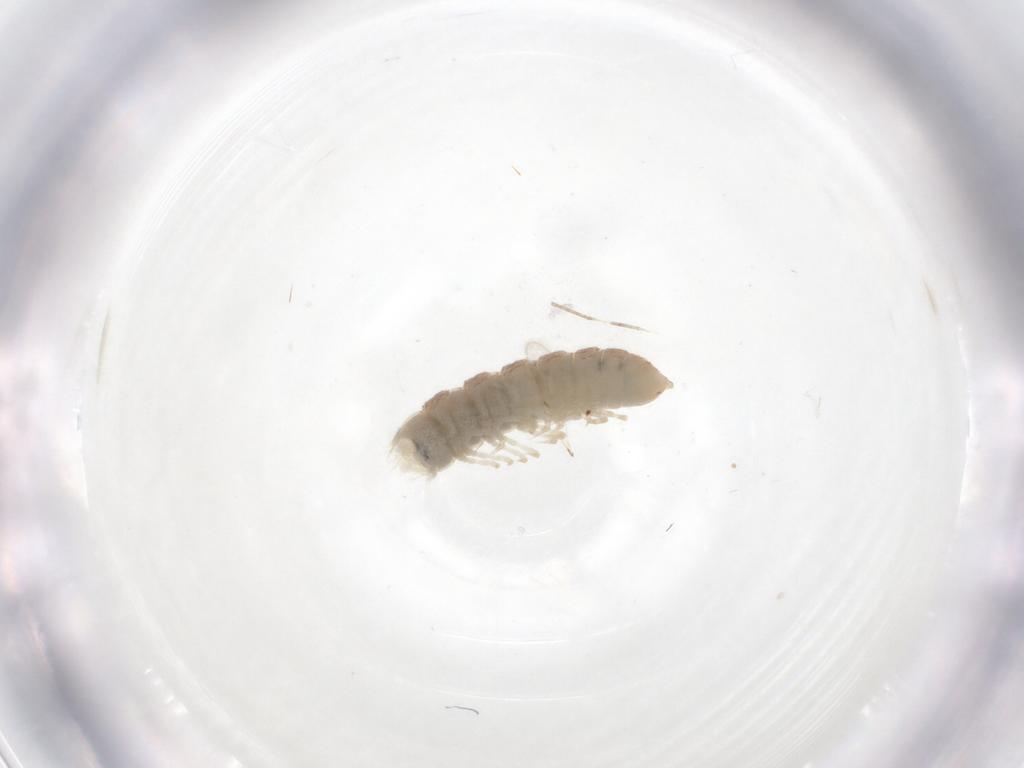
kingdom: Animalia
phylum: Arthropoda
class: Insecta
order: Hymenoptera
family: Scelionidae
